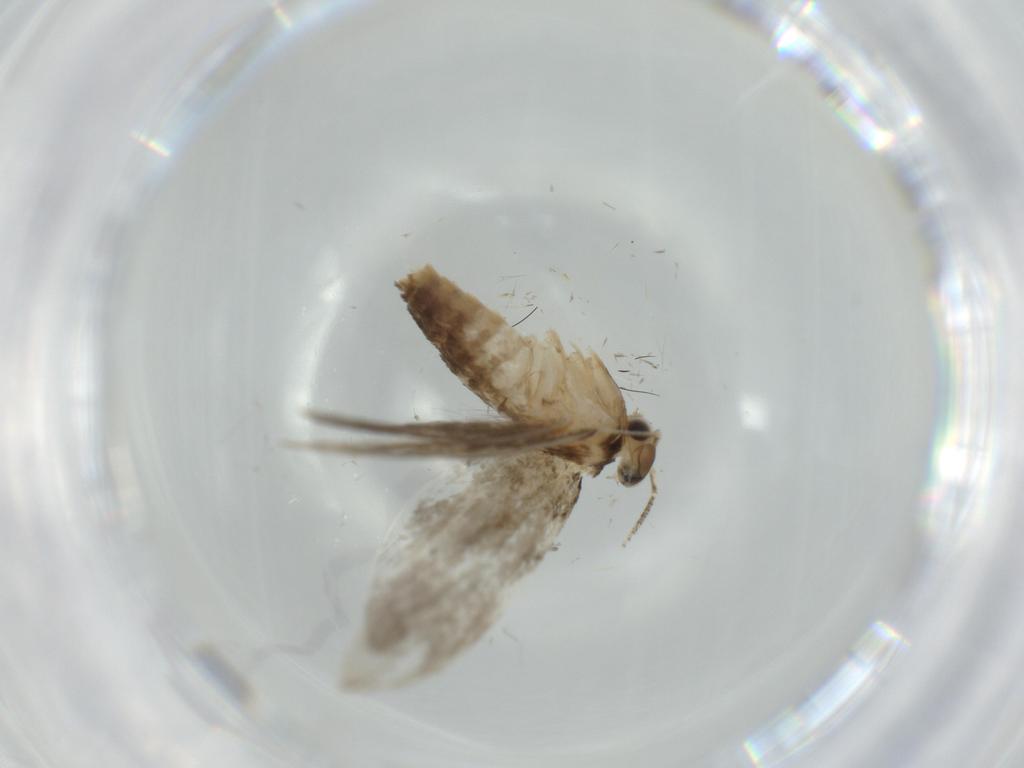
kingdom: Animalia
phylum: Arthropoda
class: Insecta
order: Lepidoptera
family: Tineidae
